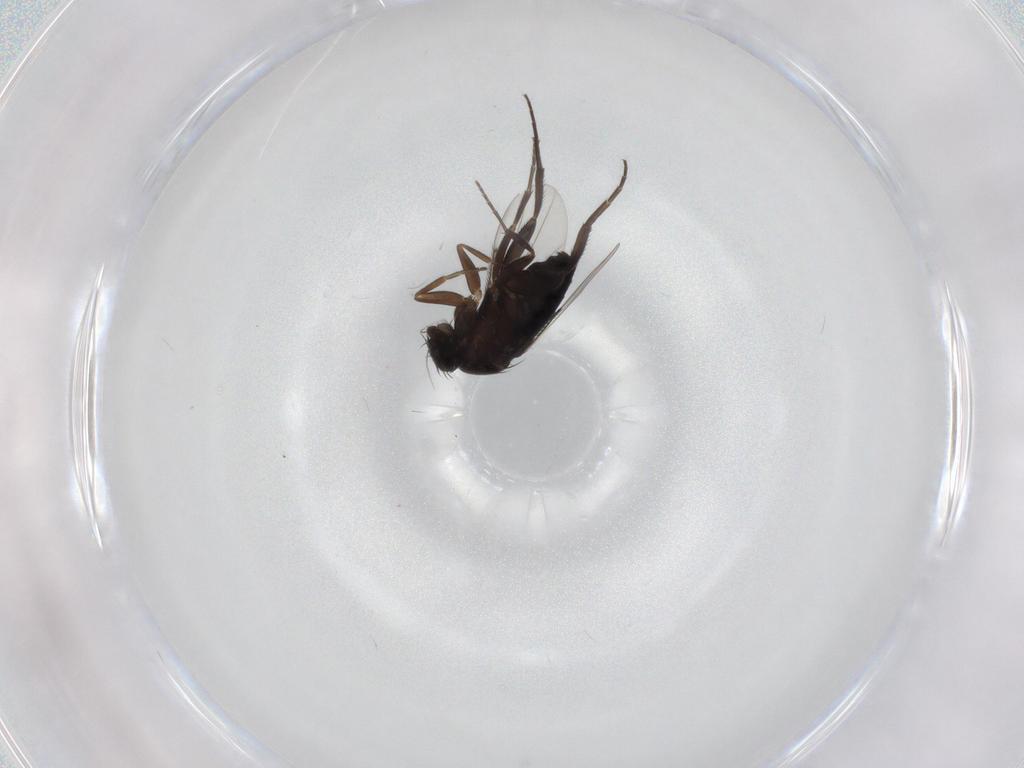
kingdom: Animalia
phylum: Arthropoda
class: Insecta
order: Diptera
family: Phoridae
